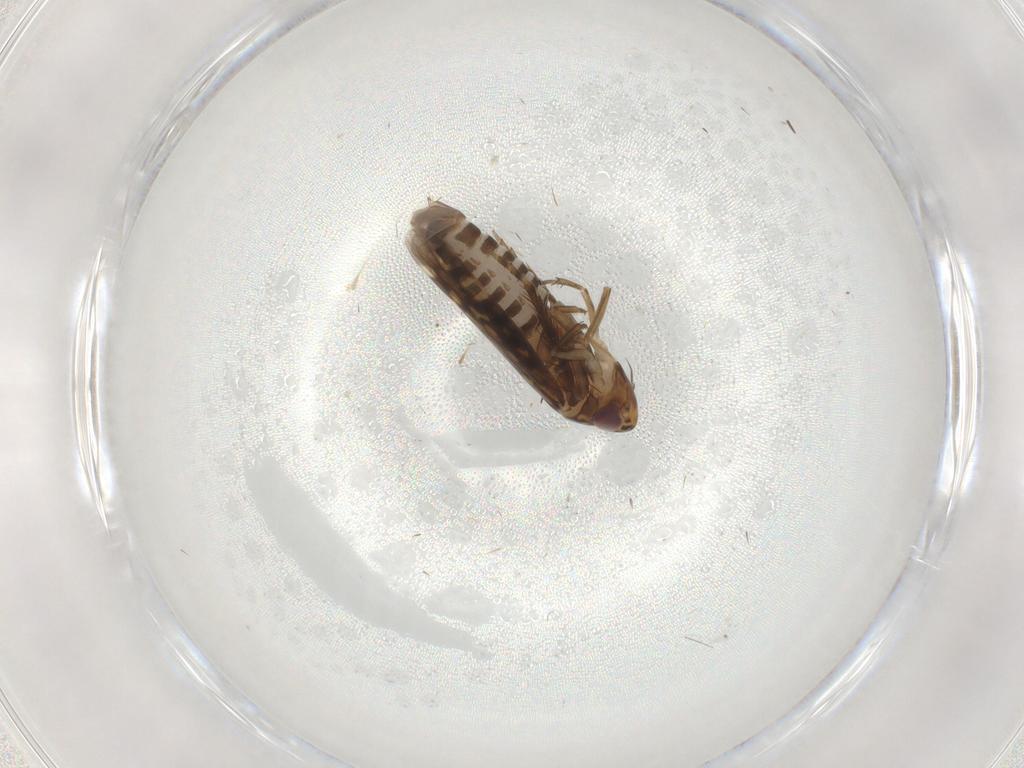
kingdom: Animalia
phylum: Arthropoda
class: Insecta
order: Hemiptera
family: Cicadellidae
